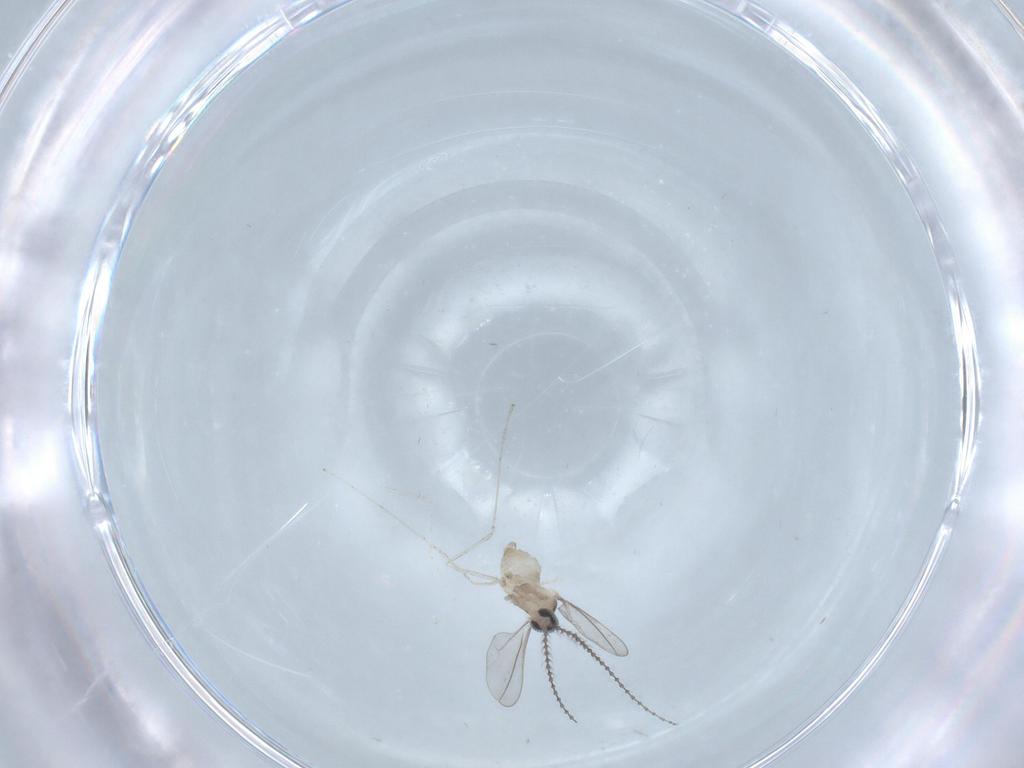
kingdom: Animalia
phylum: Arthropoda
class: Insecta
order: Diptera
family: Cecidomyiidae
